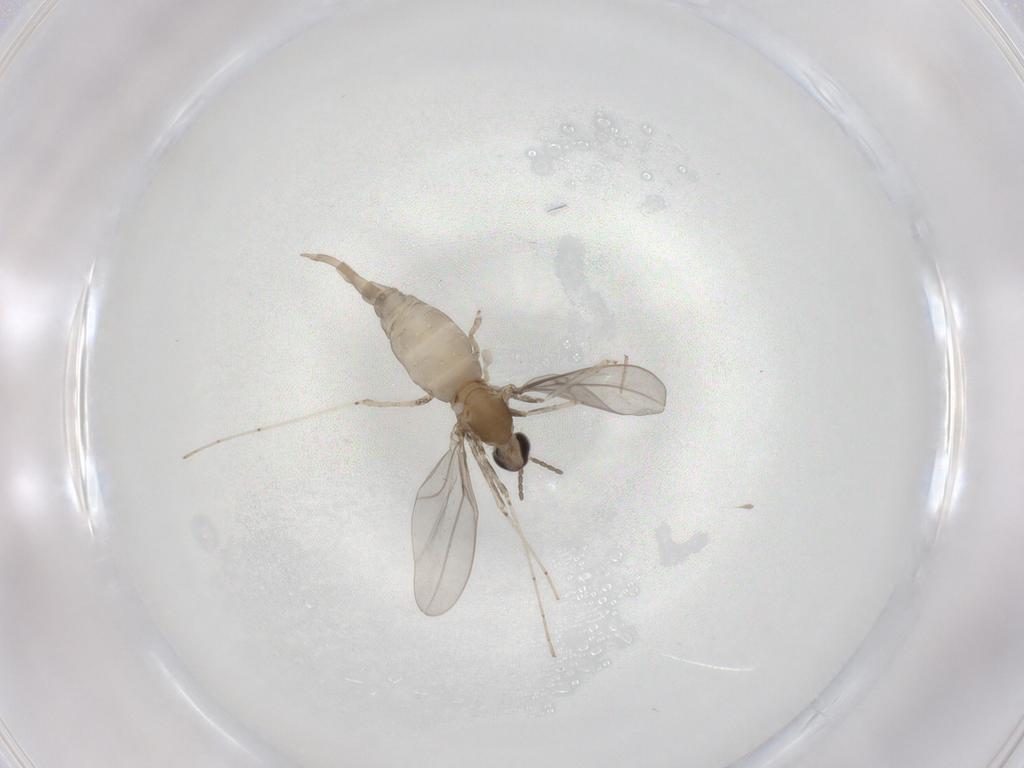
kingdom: Animalia
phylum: Arthropoda
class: Insecta
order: Diptera
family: Cecidomyiidae
